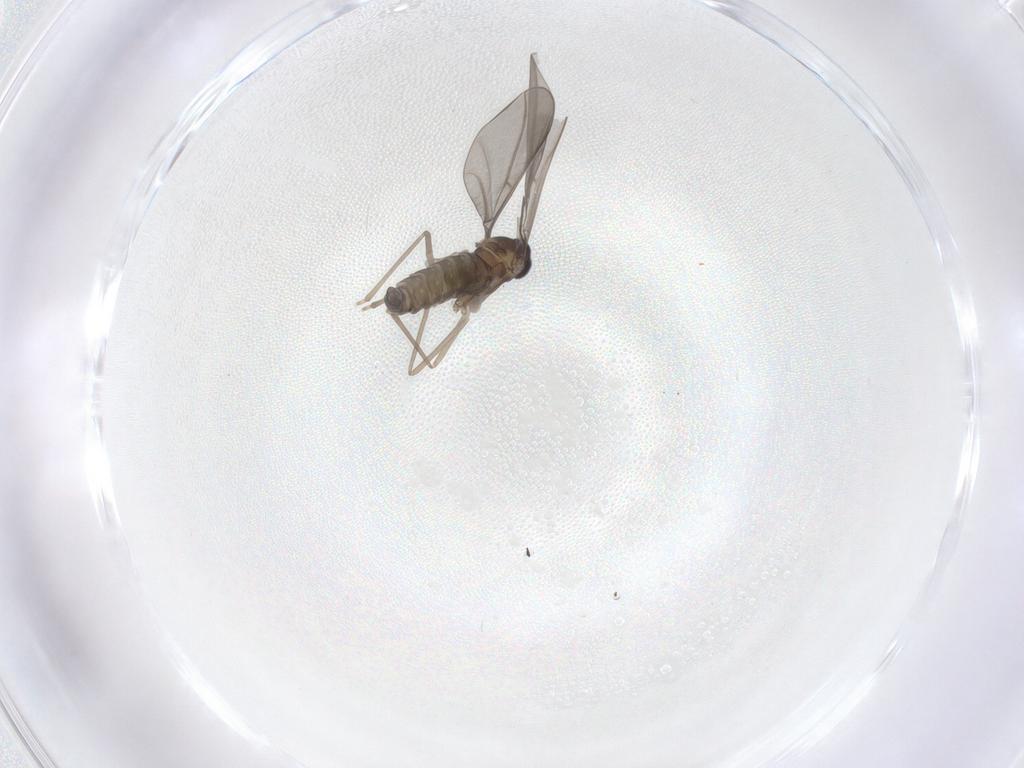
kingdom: Animalia
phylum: Arthropoda
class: Insecta
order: Diptera
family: Cecidomyiidae
